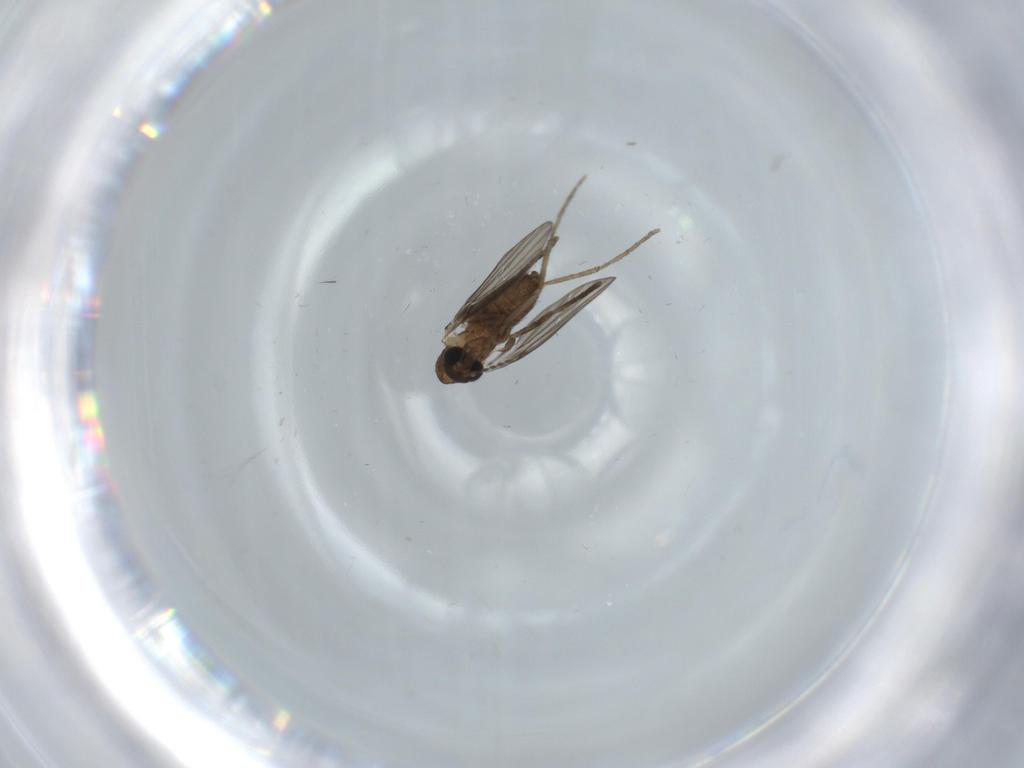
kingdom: Animalia
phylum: Arthropoda
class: Insecta
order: Diptera
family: Psychodidae
